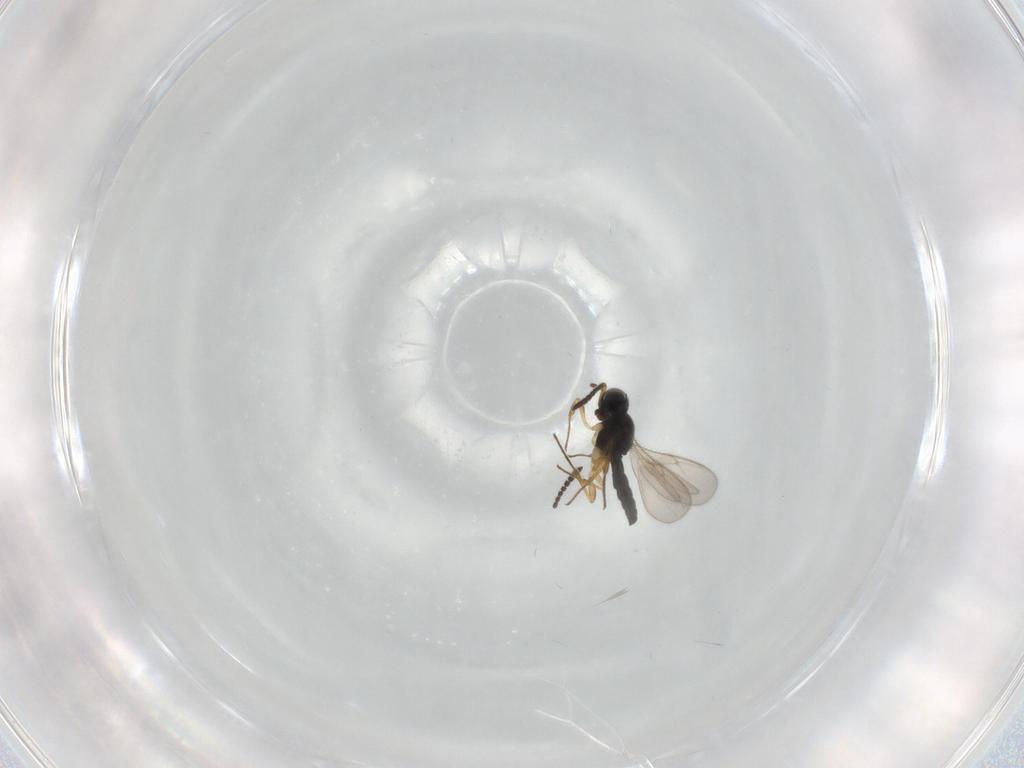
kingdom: Animalia
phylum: Arthropoda
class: Insecta
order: Hymenoptera
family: Scelionidae
